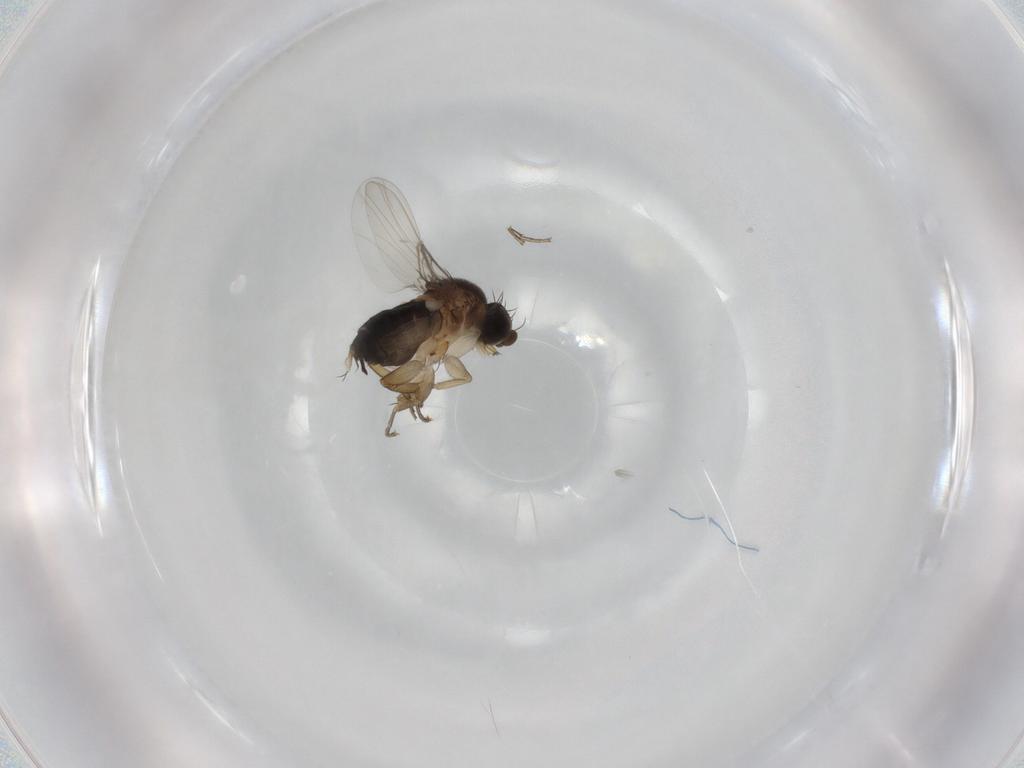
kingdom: Animalia
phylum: Arthropoda
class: Insecta
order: Diptera
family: Phoridae
